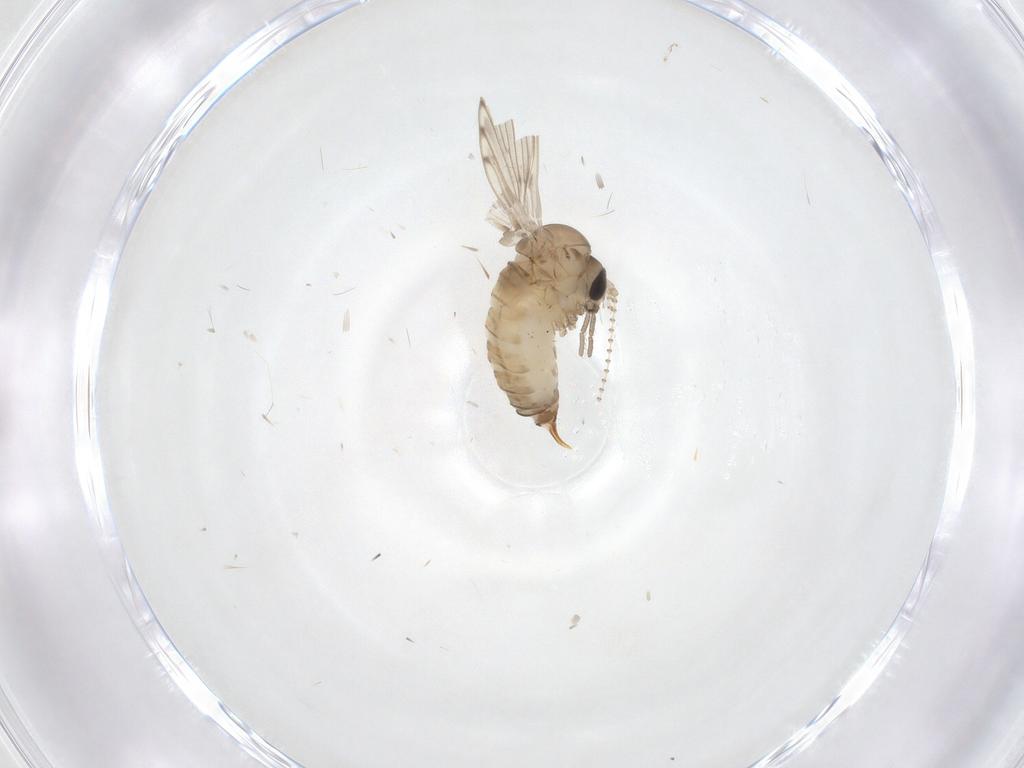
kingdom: Animalia
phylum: Arthropoda
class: Insecta
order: Diptera
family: Psychodidae
